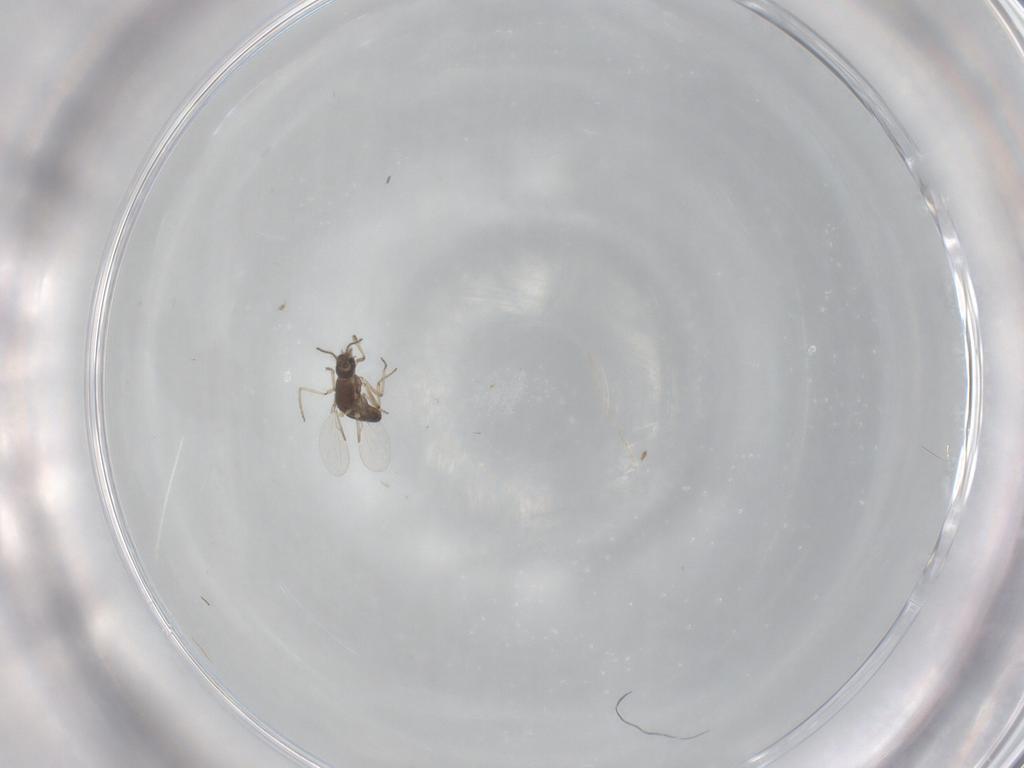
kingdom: Animalia
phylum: Arthropoda
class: Insecta
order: Diptera
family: Ceratopogonidae
